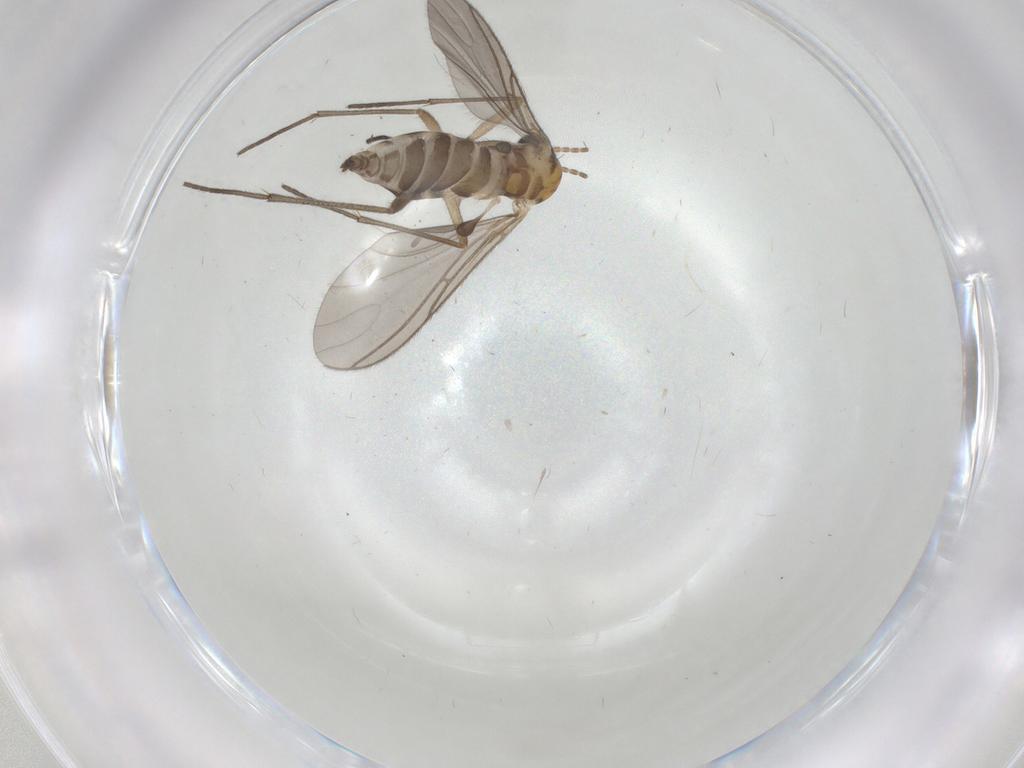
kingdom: Animalia
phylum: Arthropoda
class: Insecta
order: Diptera
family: Sciaridae
